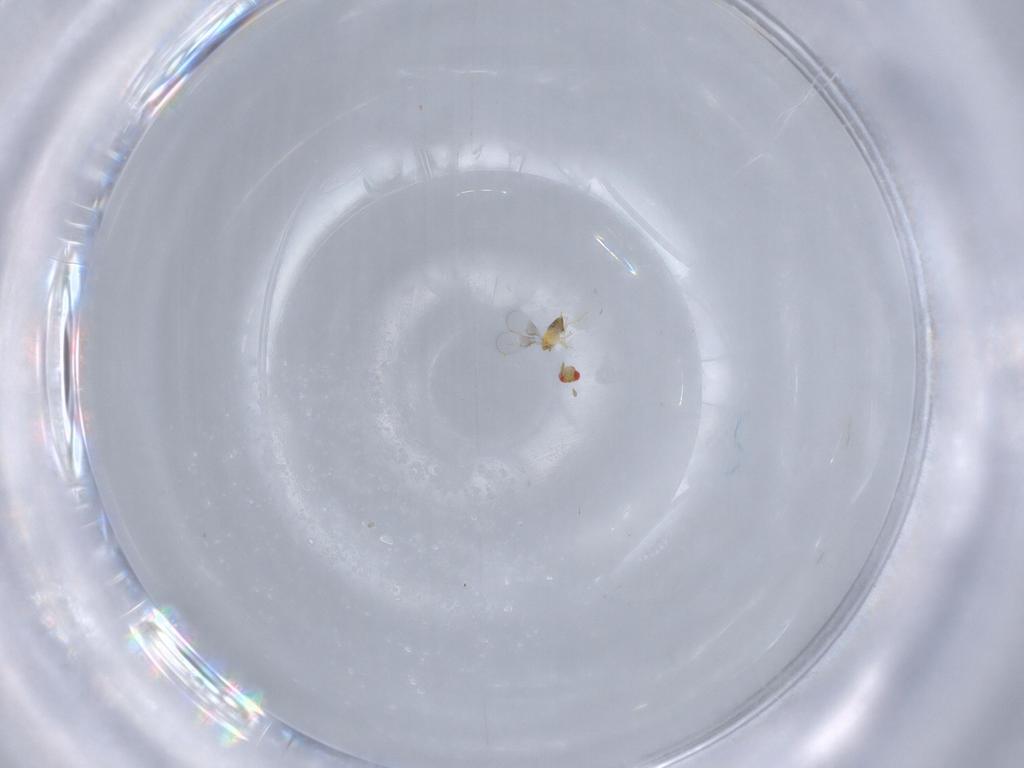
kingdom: Animalia
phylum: Arthropoda
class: Insecta
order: Hymenoptera
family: Trichogrammatidae
